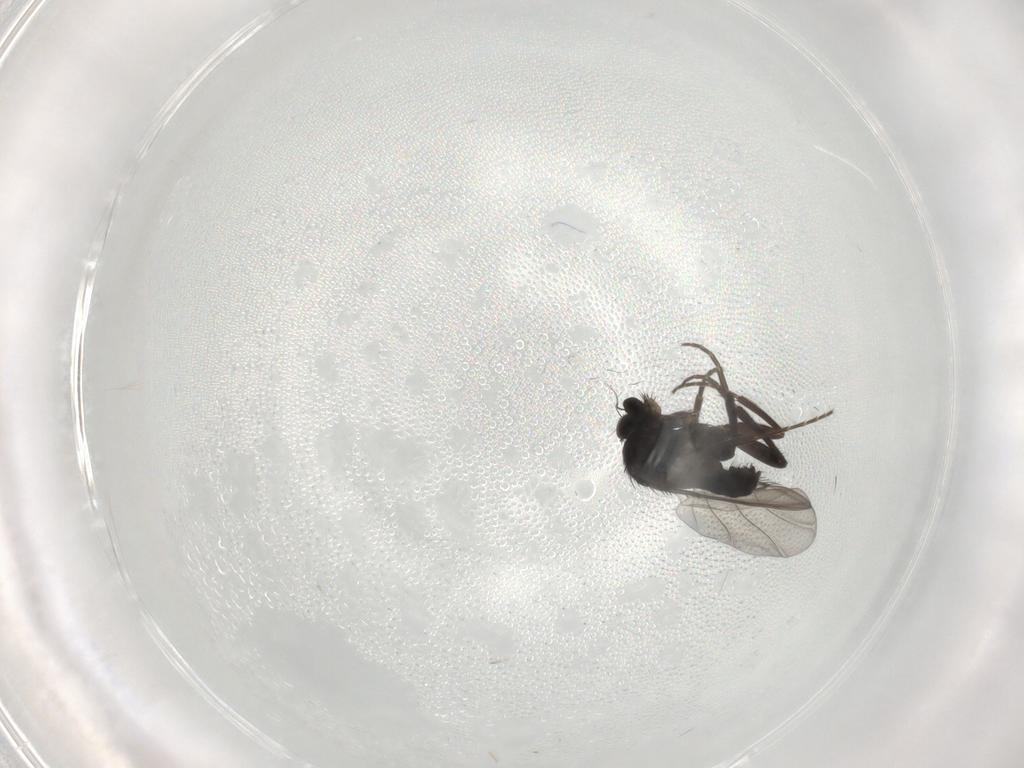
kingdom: Animalia
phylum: Arthropoda
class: Insecta
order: Diptera
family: Phoridae
